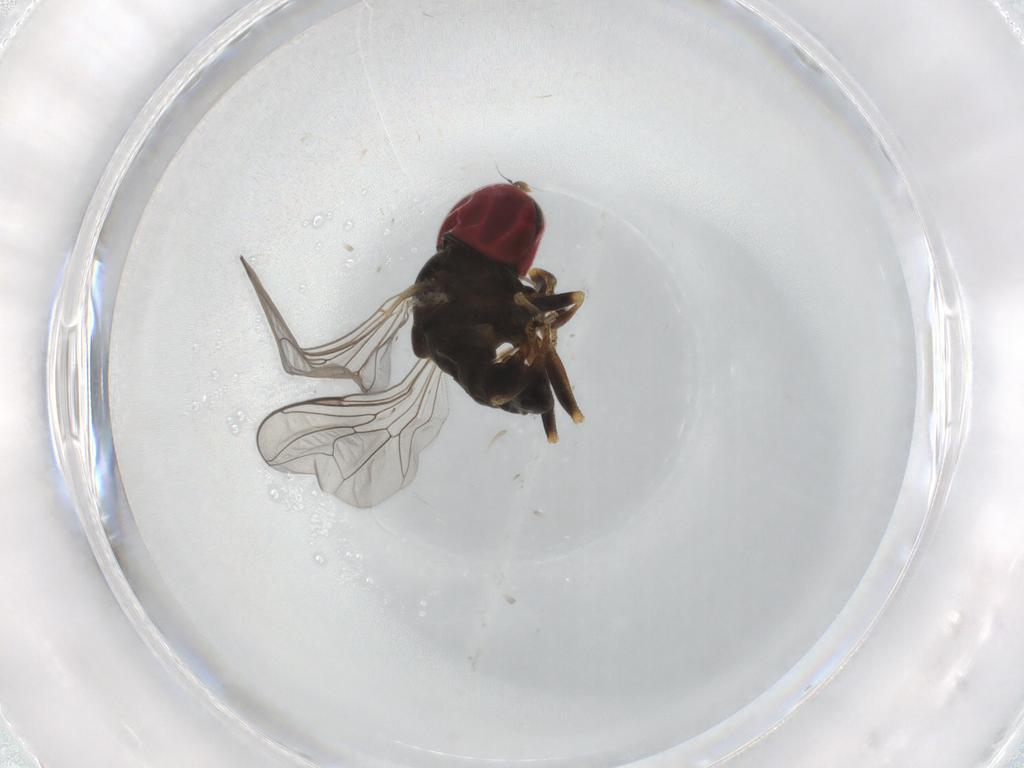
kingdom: Animalia
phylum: Arthropoda
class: Insecta
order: Diptera
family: Pipunculidae
